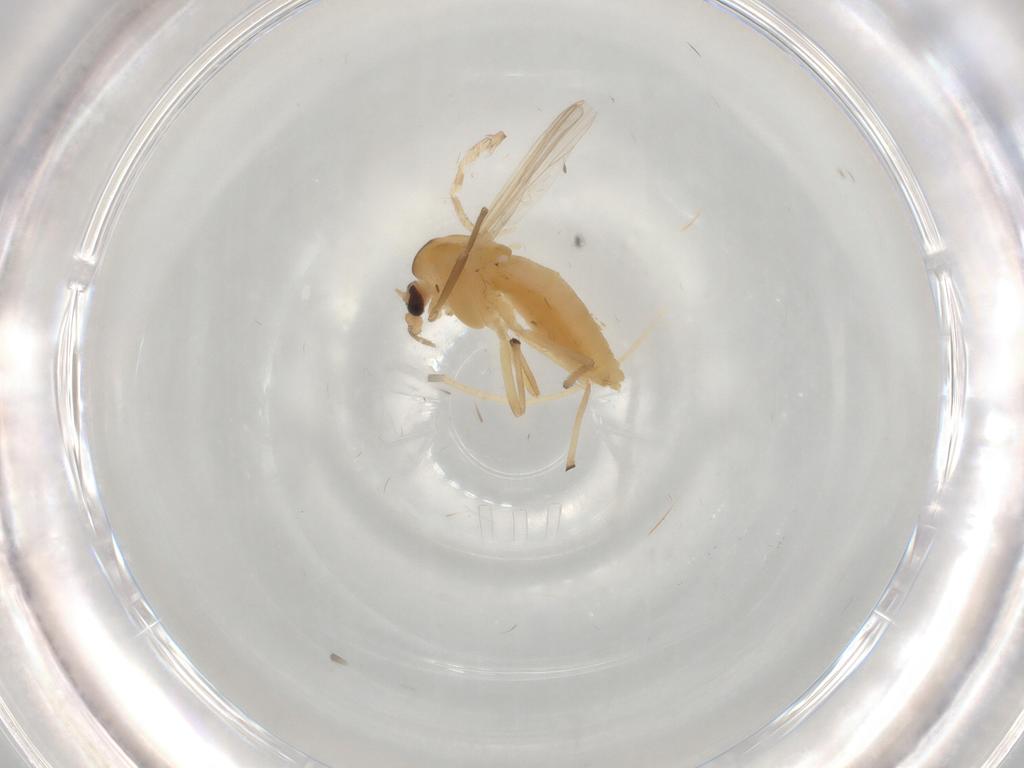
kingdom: Animalia
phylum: Arthropoda
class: Insecta
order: Diptera
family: Chironomidae
